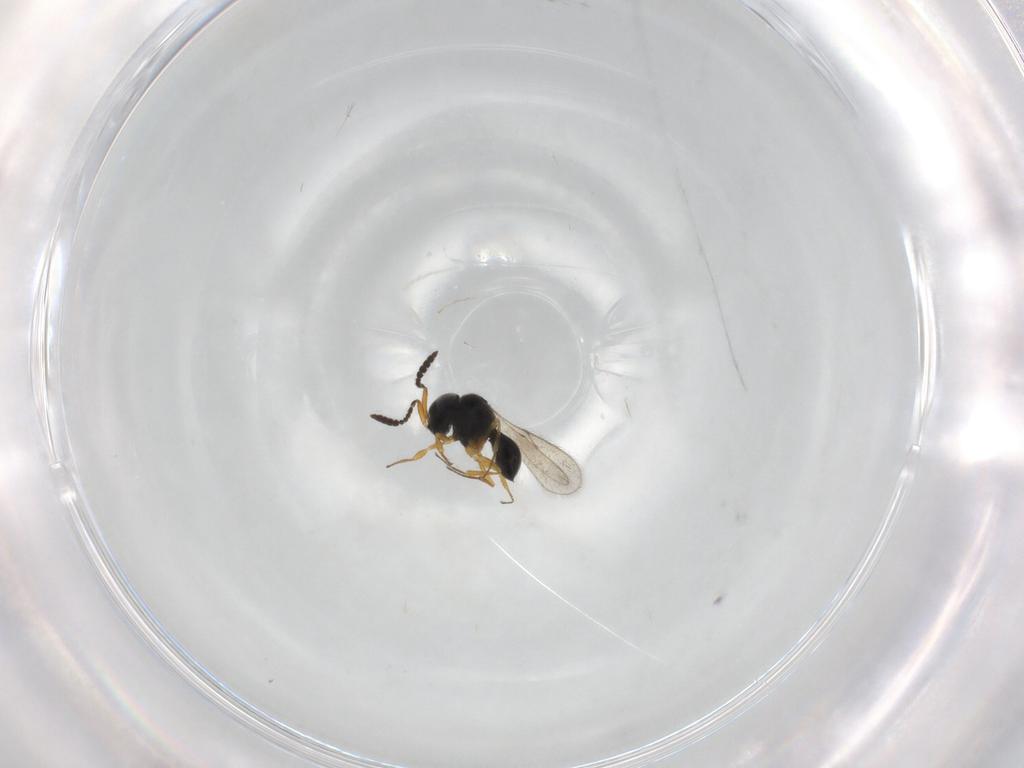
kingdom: Animalia
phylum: Arthropoda
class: Insecta
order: Hymenoptera
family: Scelionidae
